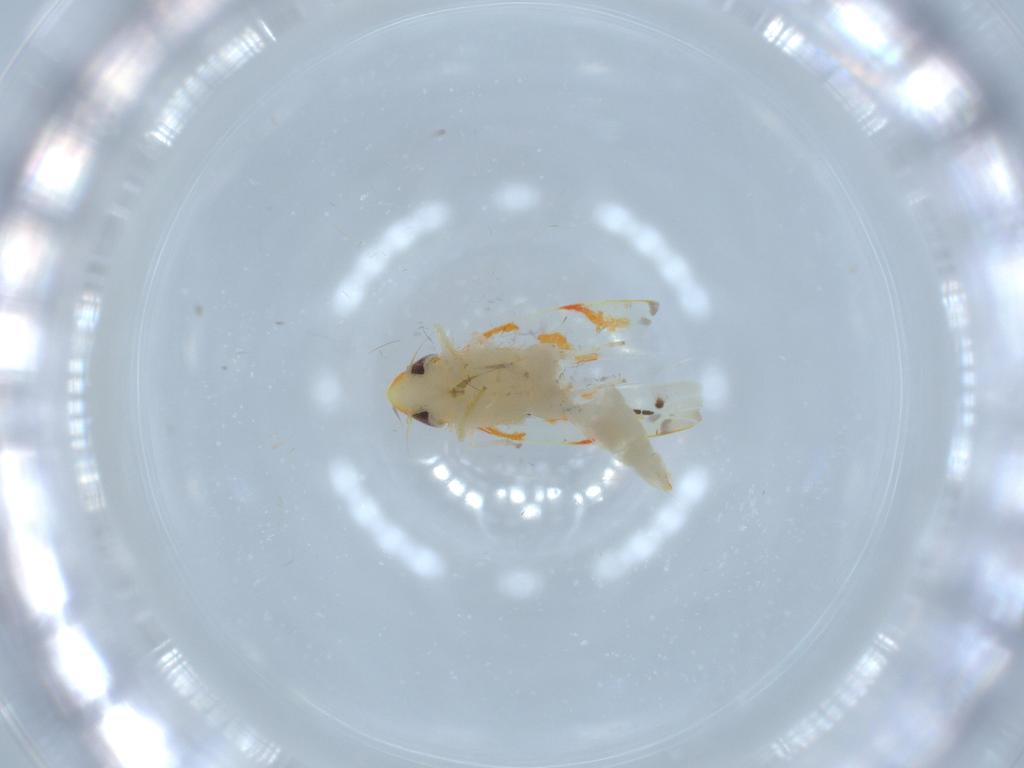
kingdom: Animalia
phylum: Arthropoda
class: Insecta
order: Hemiptera
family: Cicadellidae
